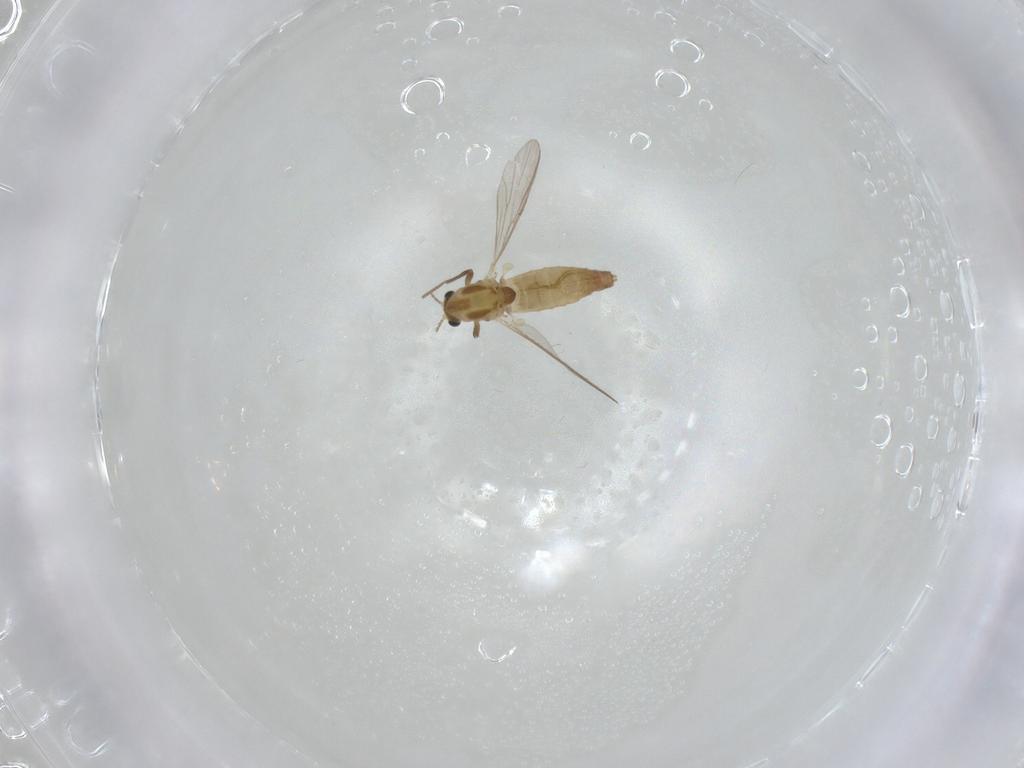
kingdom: Animalia
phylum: Arthropoda
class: Insecta
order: Diptera
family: Chironomidae
